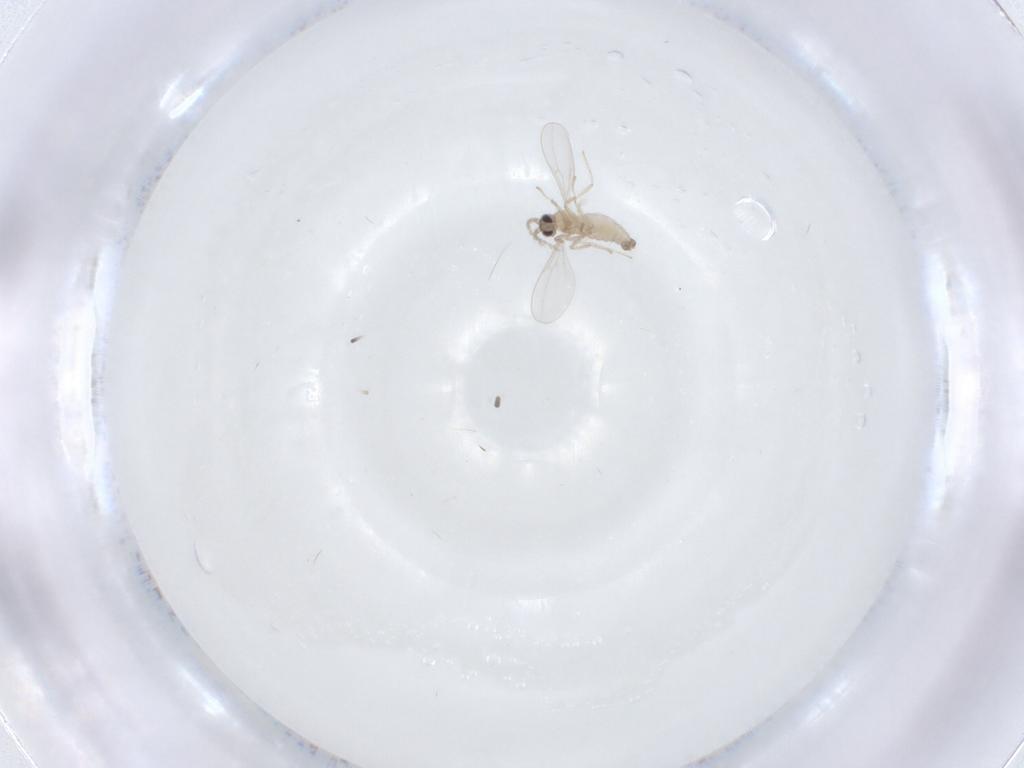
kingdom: Animalia
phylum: Arthropoda
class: Insecta
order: Diptera
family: Cecidomyiidae
